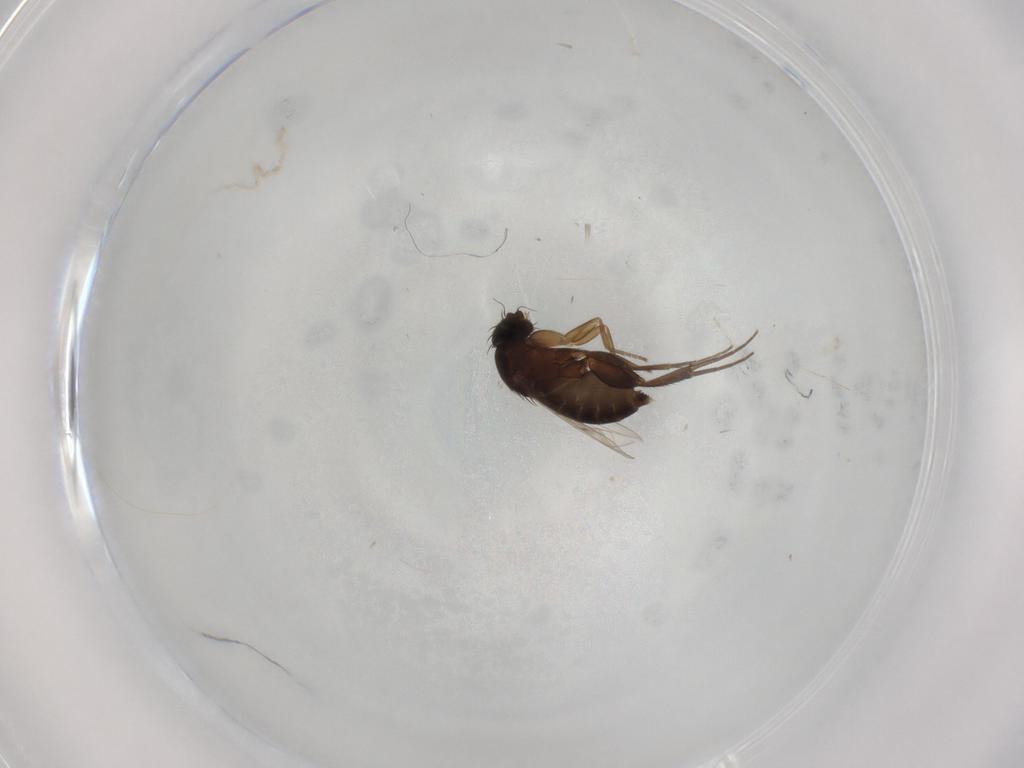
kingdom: Animalia
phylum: Arthropoda
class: Insecta
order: Diptera
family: Phoridae
